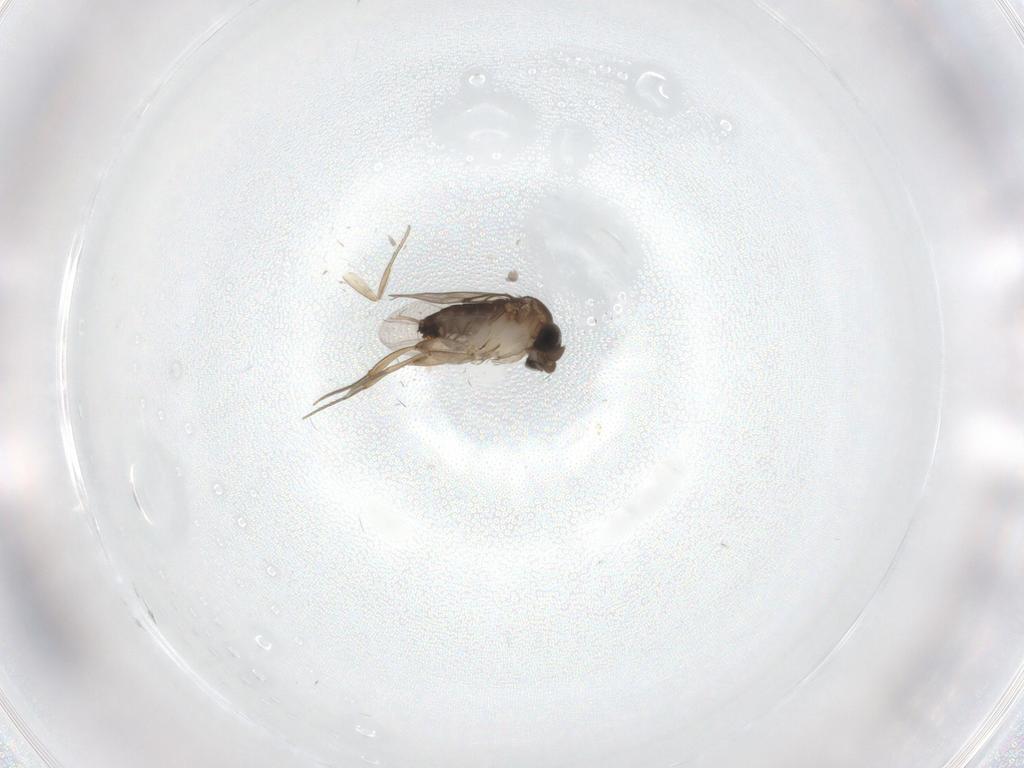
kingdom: Animalia
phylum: Arthropoda
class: Insecta
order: Diptera
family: Phoridae
